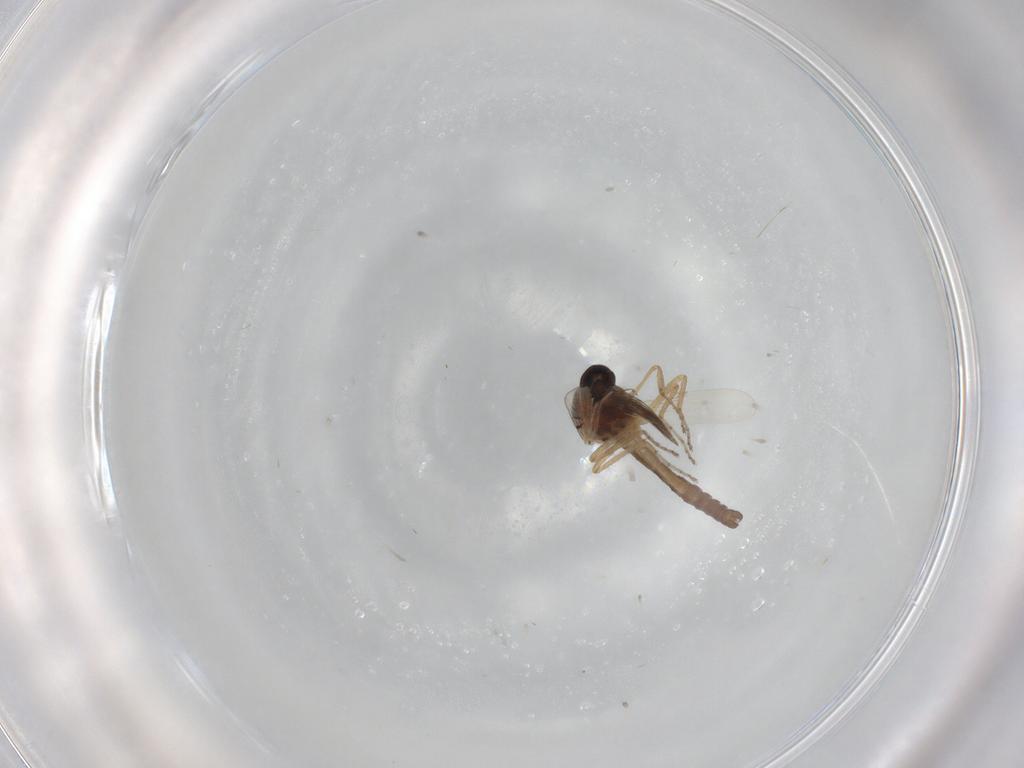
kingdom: Animalia
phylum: Arthropoda
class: Insecta
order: Diptera
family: Ceratopogonidae
